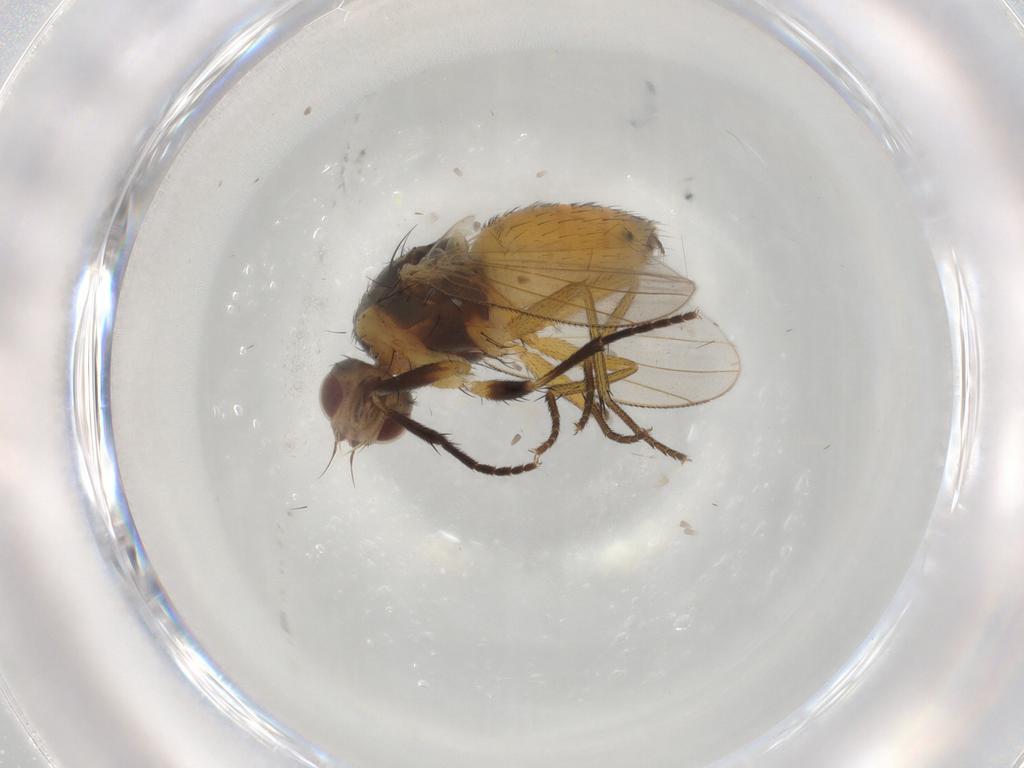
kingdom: Animalia
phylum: Arthropoda
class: Insecta
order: Diptera
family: Muscidae
